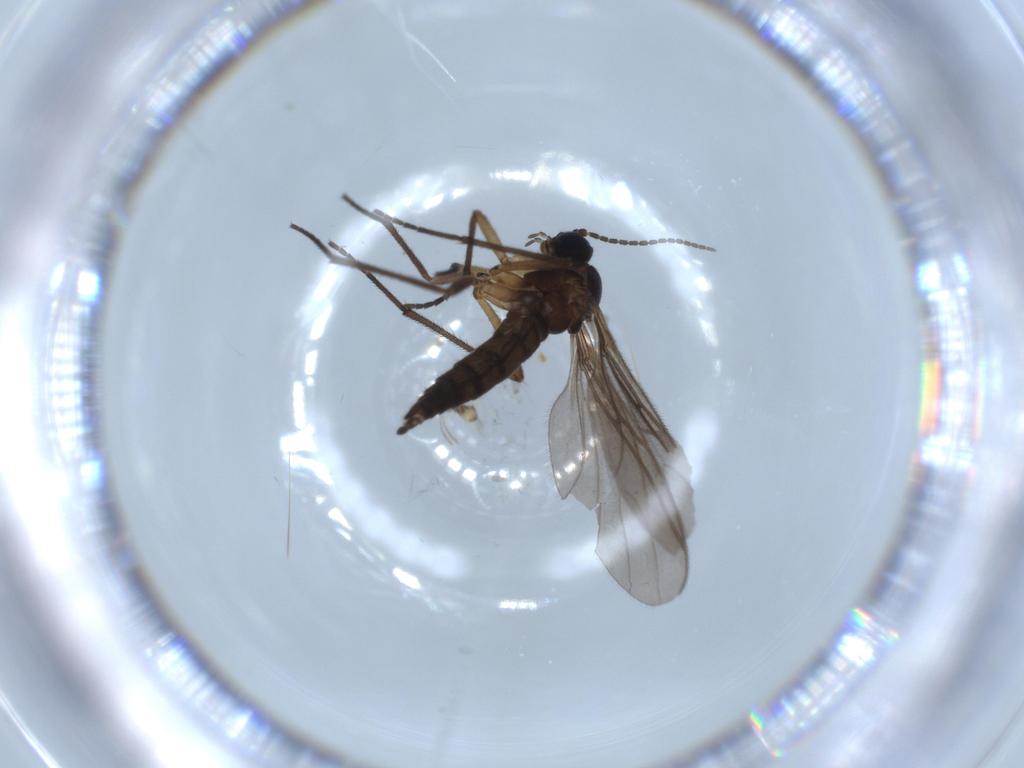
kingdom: Animalia
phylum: Arthropoda
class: Insecta
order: Diptera
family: Sciaridae
